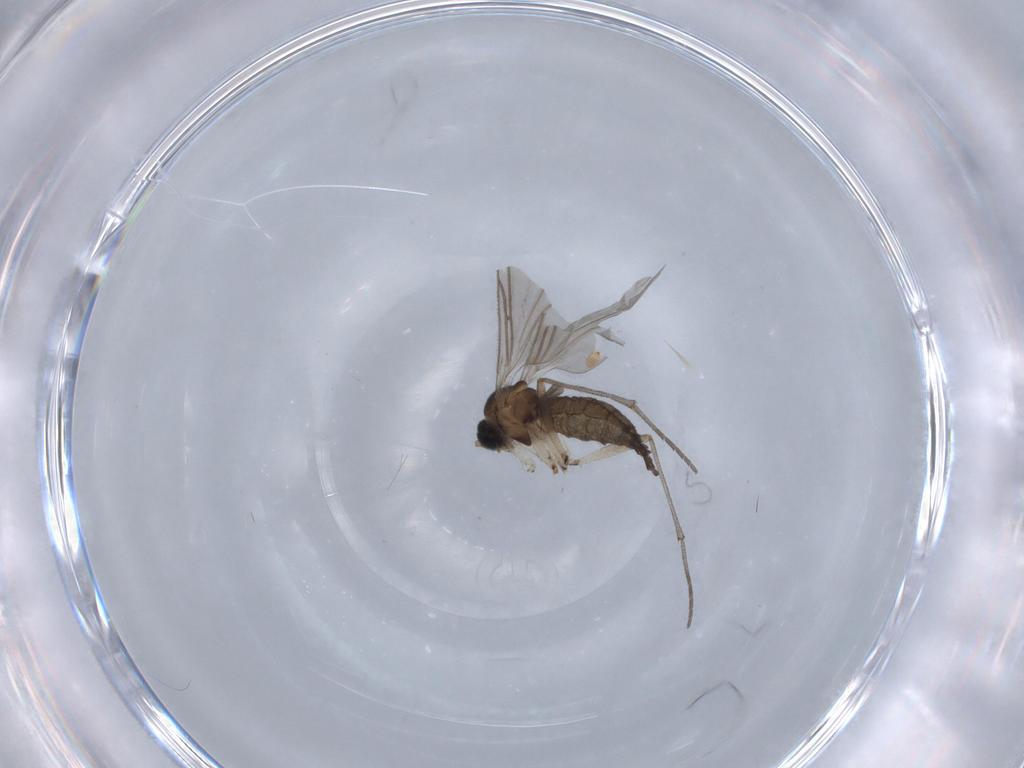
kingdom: Animalia
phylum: Arthropoda
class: Insecta
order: Diptera
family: Sciaridae
